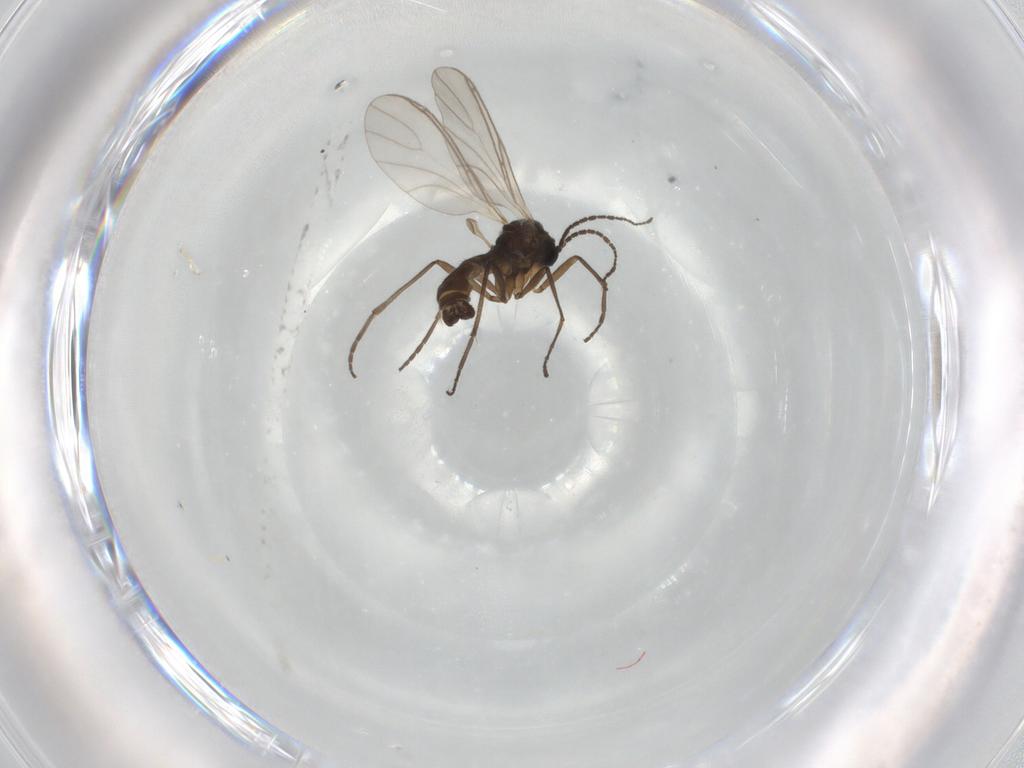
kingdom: Animalia
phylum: Arthropoda
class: Insecta
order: Diptera
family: Sciaridae
